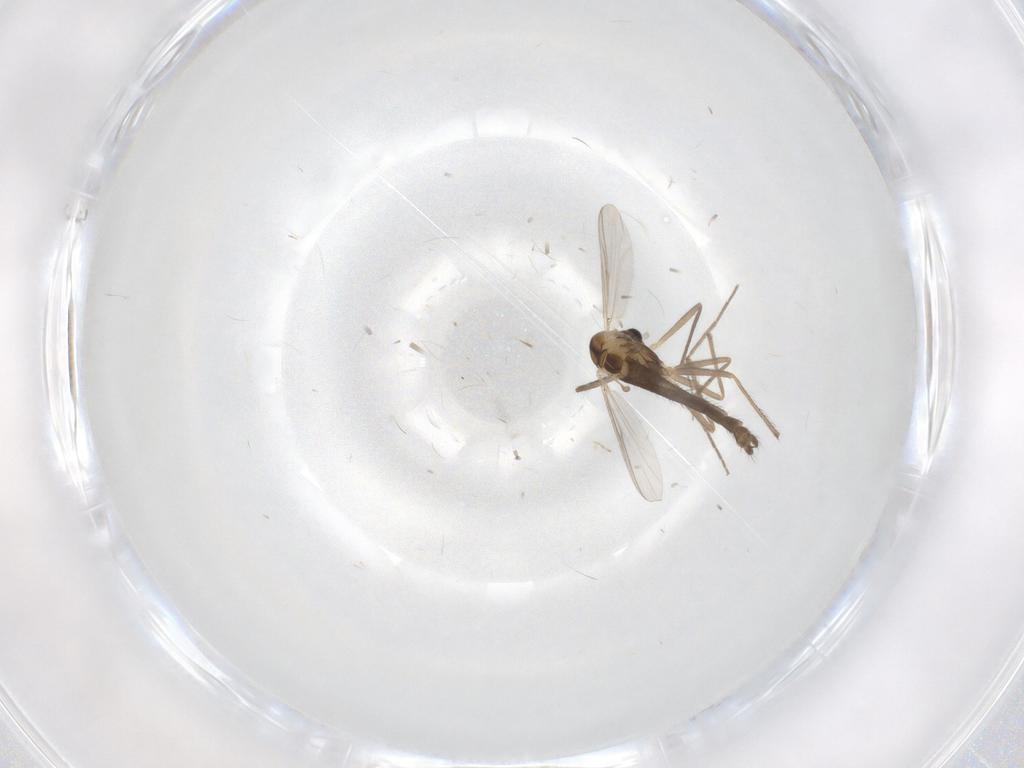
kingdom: Animalia
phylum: Arthropoda
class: Insecta
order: Diptera
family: Chironomidae
